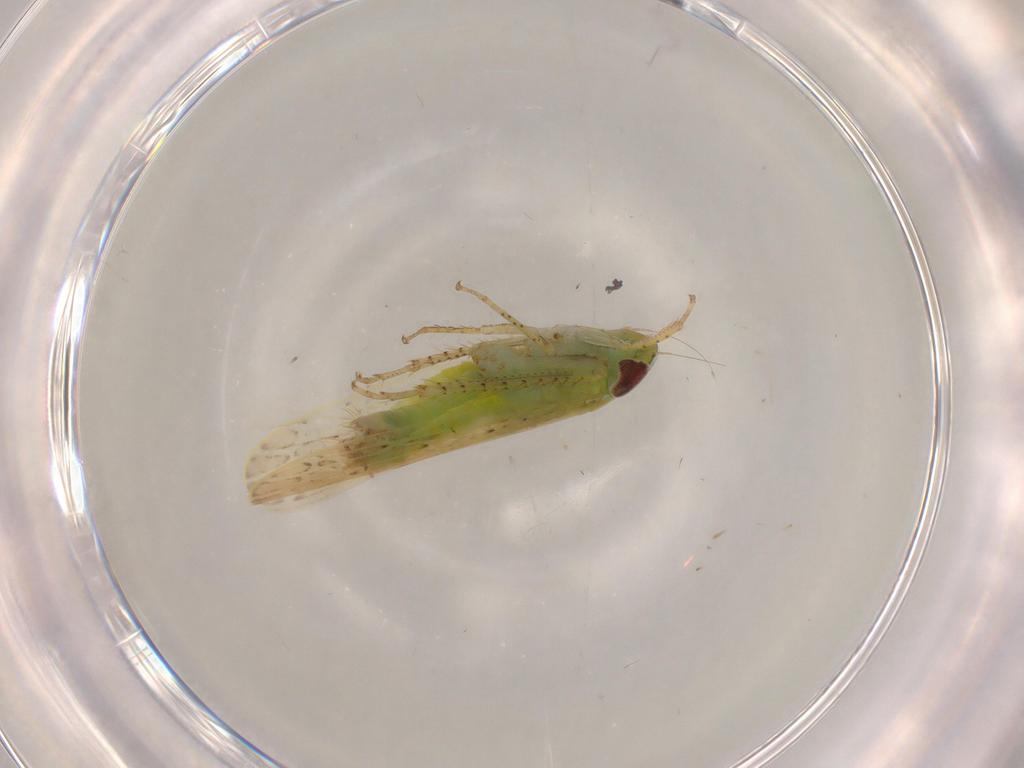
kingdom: Animalia
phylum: Arthropoda
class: Insecta
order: Hemiptera
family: Cicadellidae
